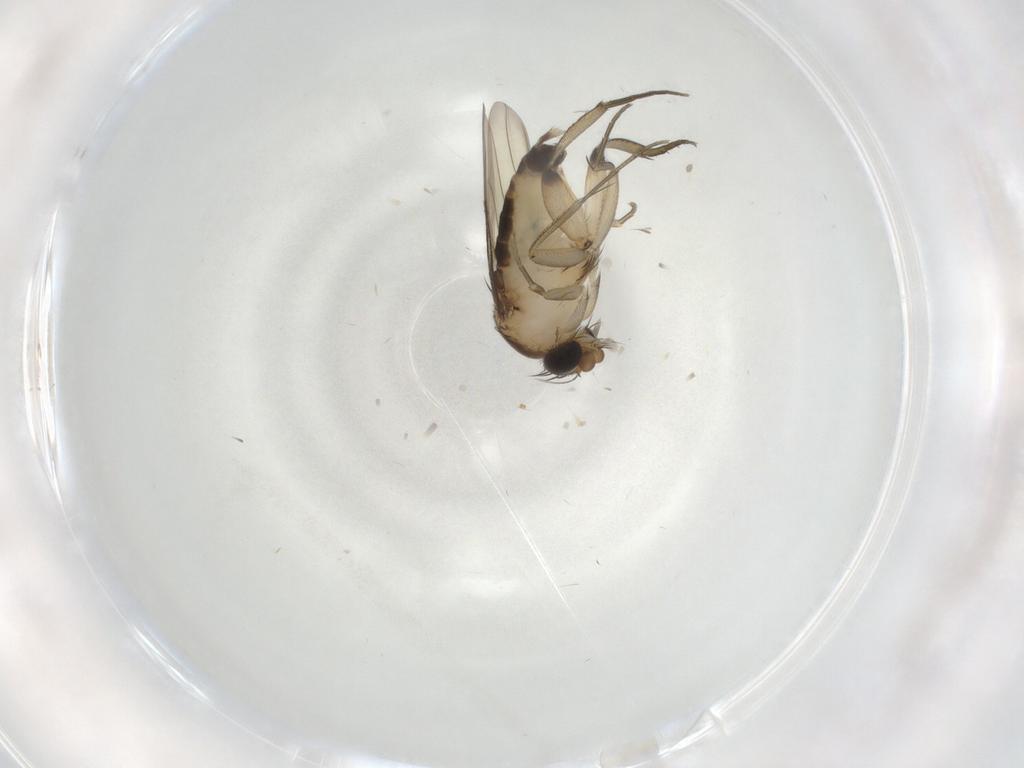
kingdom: Animalia
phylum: Arthropoda
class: Insecta
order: Diptera
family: Phoridae
